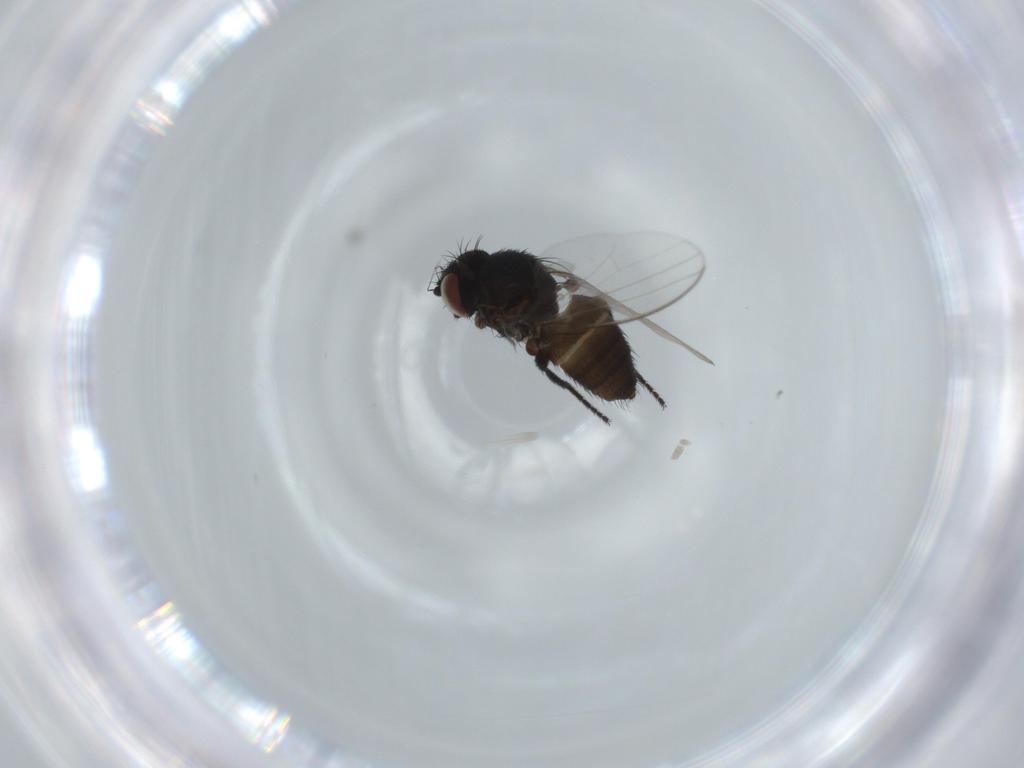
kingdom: Animalia
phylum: Arthropoda
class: Insecta
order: Diptera
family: Milichiidae
